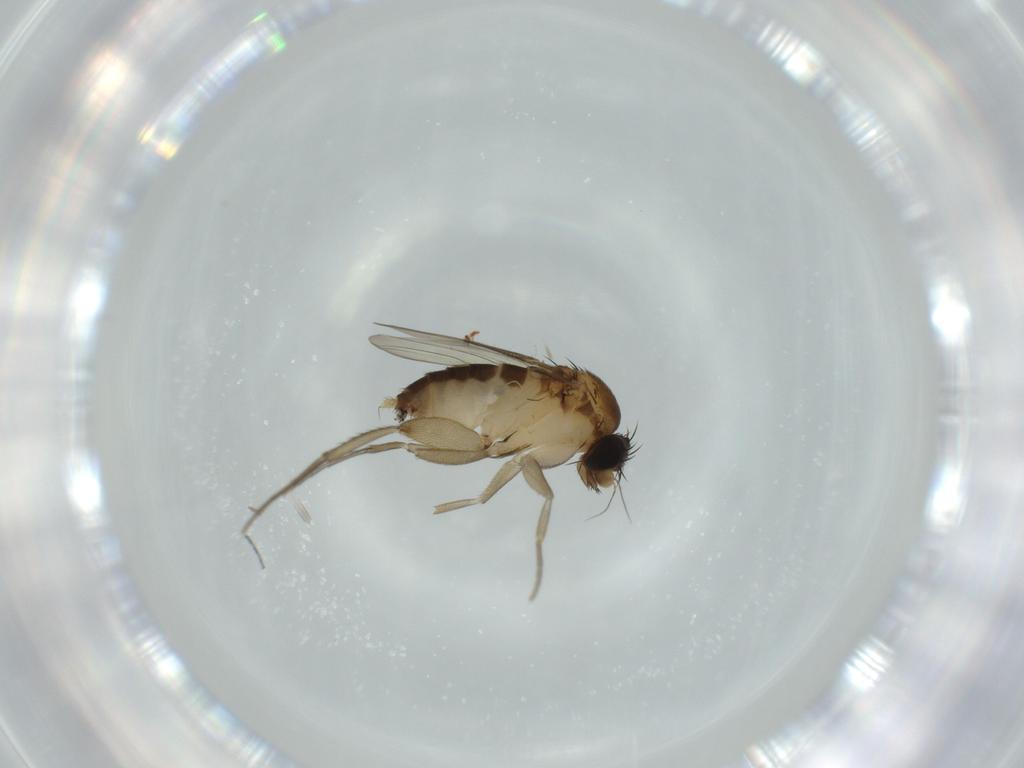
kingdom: Animalia
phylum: Arthropoda
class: Insecta
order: Diptera
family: Phoridae
